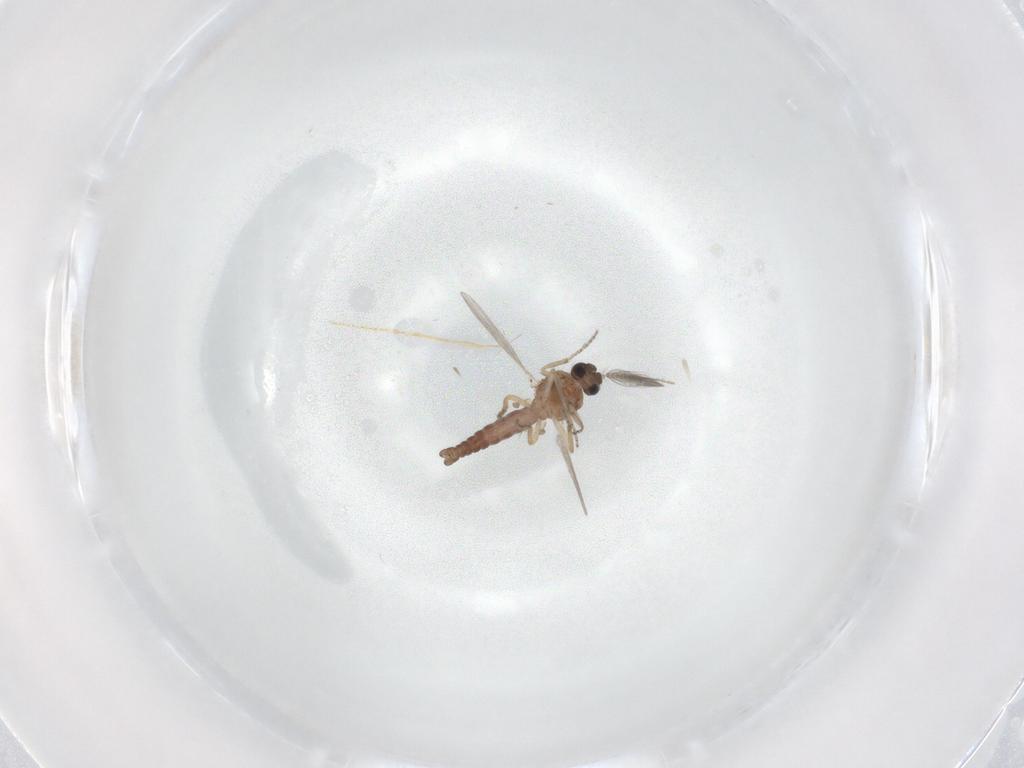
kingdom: Animalia
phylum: Arthropoda
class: Insecta
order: Diptera
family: Ceratopogonidae
